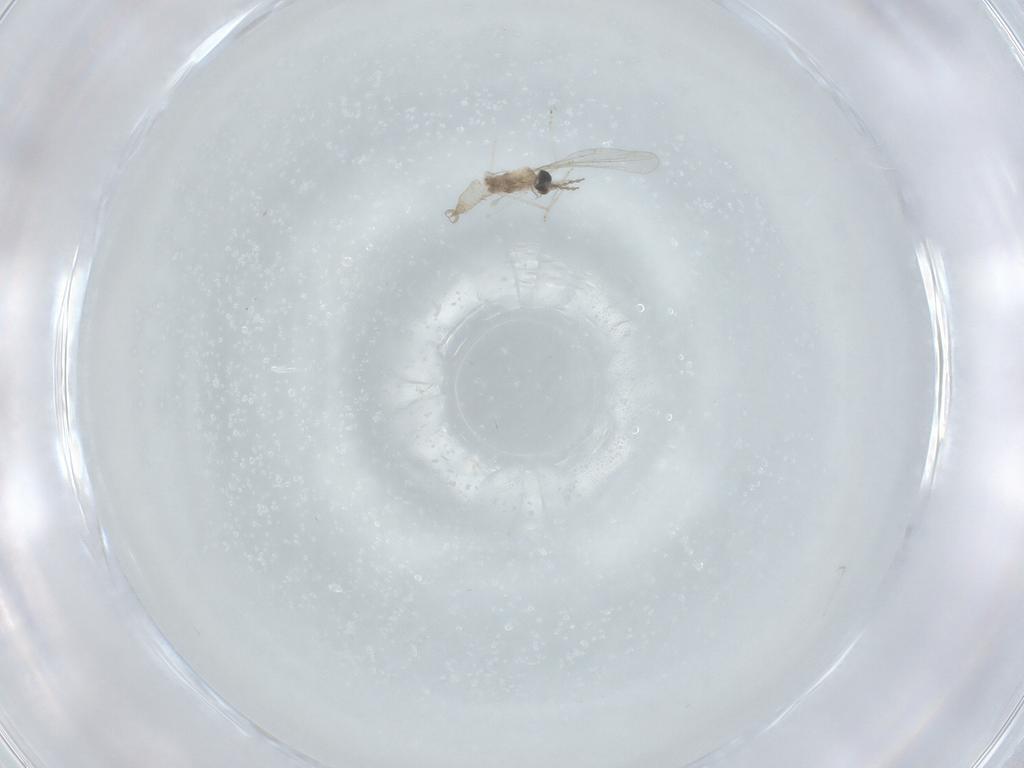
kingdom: Animalia
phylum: Arthropoda
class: Insecta
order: Diptera
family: Cecidomyiidae
